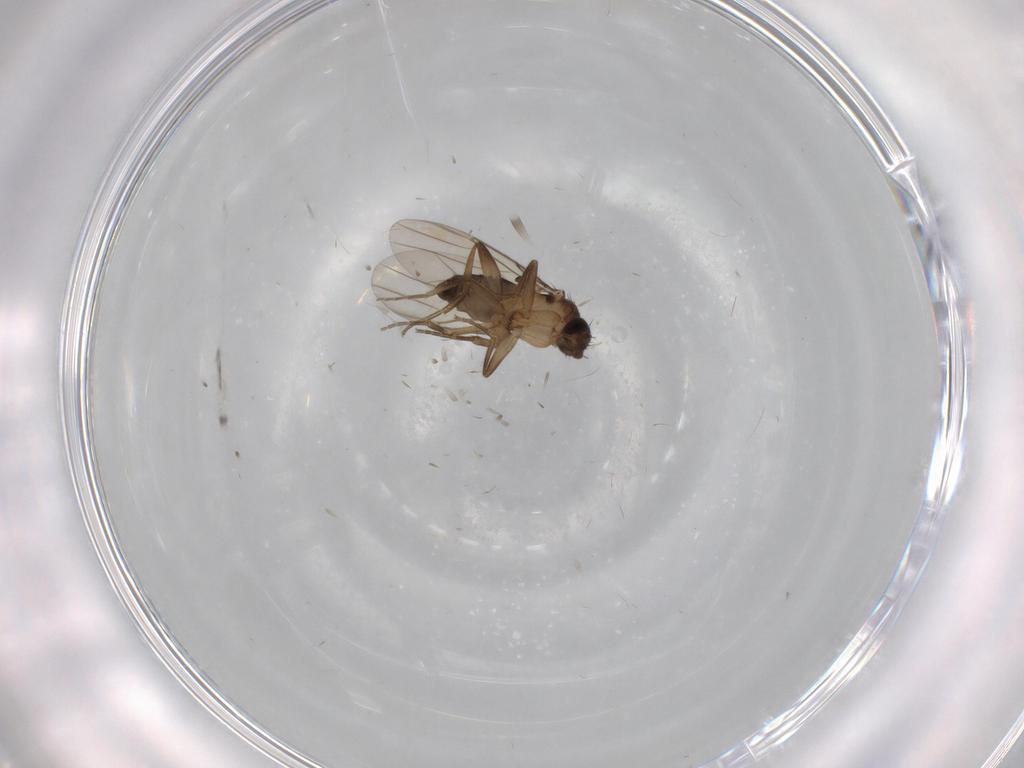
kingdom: Animalia
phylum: Arthropoda
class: Insecta
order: Diptera
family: Phoridae
